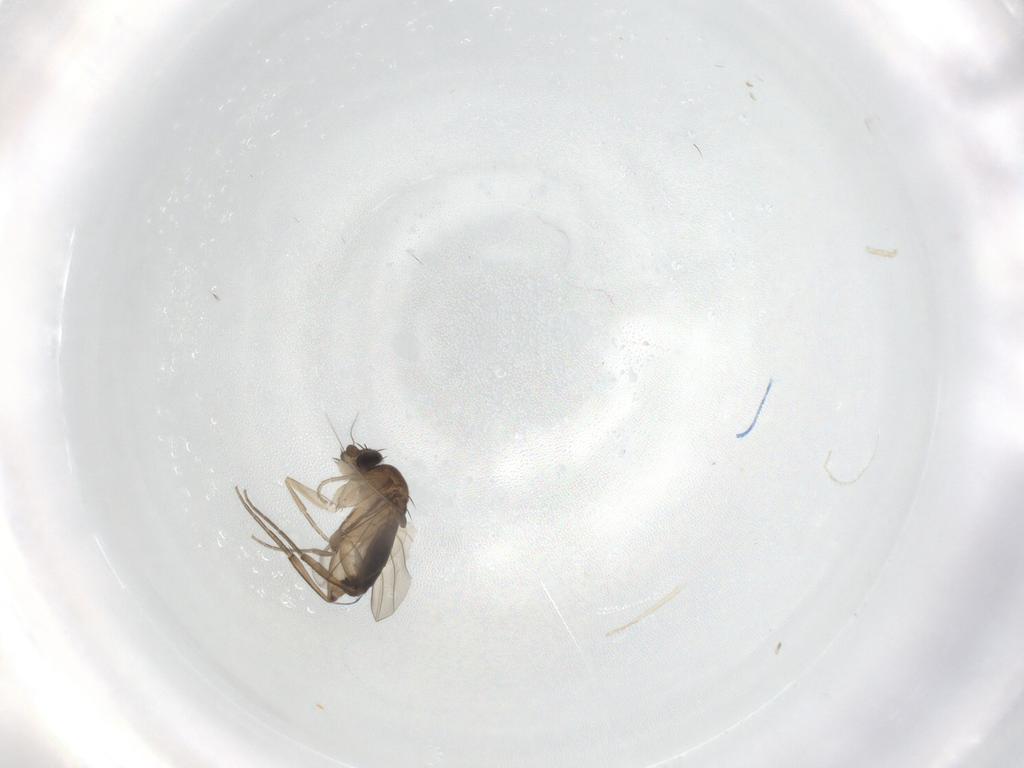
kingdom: Animalia
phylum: Arthropoda
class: Insecta
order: Diptera
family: Phoridae
